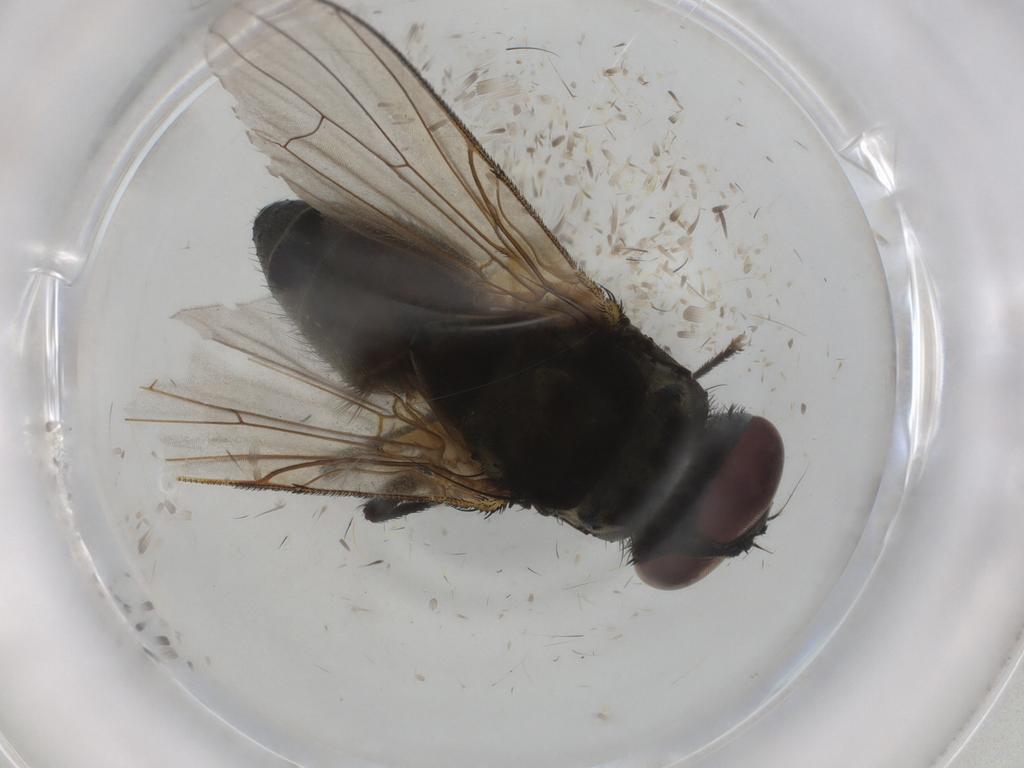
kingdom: Animalia
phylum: Arthropoda
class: Insecta
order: Diptera
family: Muscidae
